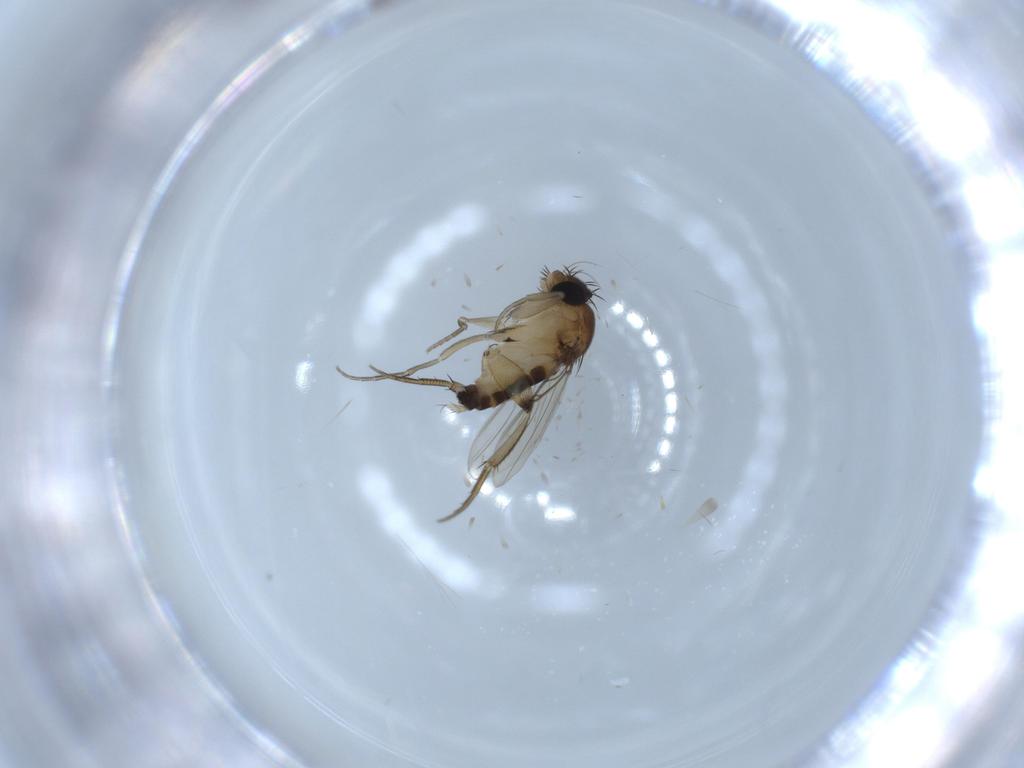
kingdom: Animalia
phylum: Arthropoda
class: Insecta
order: Diptera
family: Phoridae
